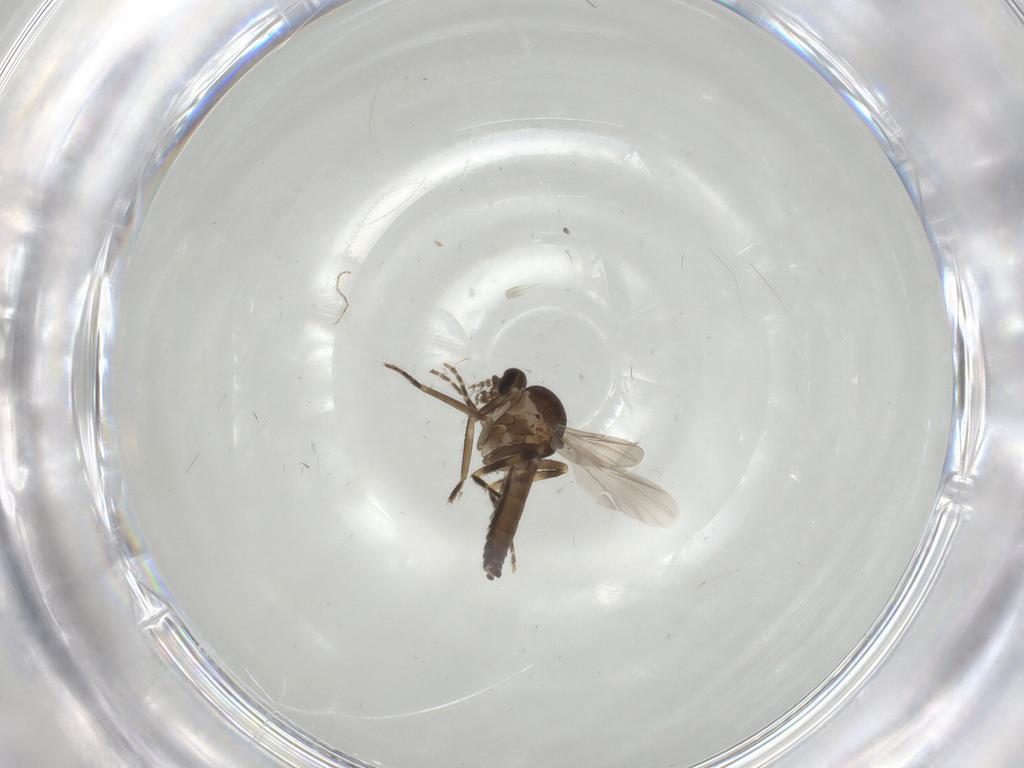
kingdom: Animalia
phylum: Arthropoda
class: Insecta
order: Diptera
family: Ceratopogonidae
